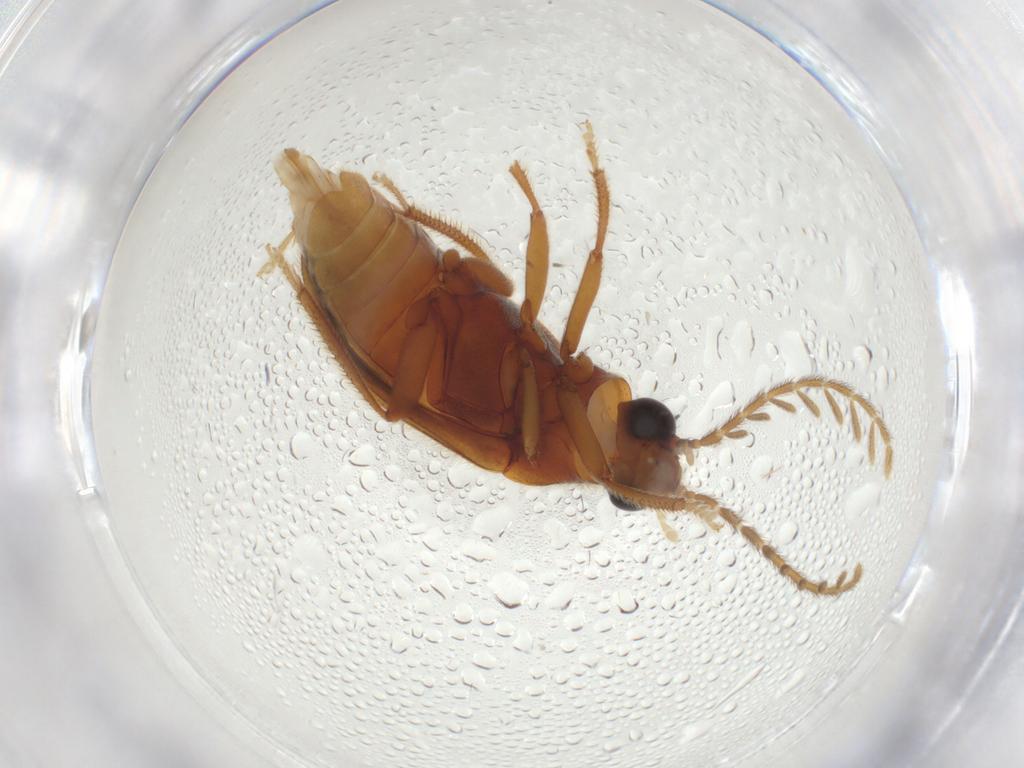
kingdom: Animalia
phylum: Arthropoda
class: Insecta
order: Coleoptera
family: Ptilodactylidae
